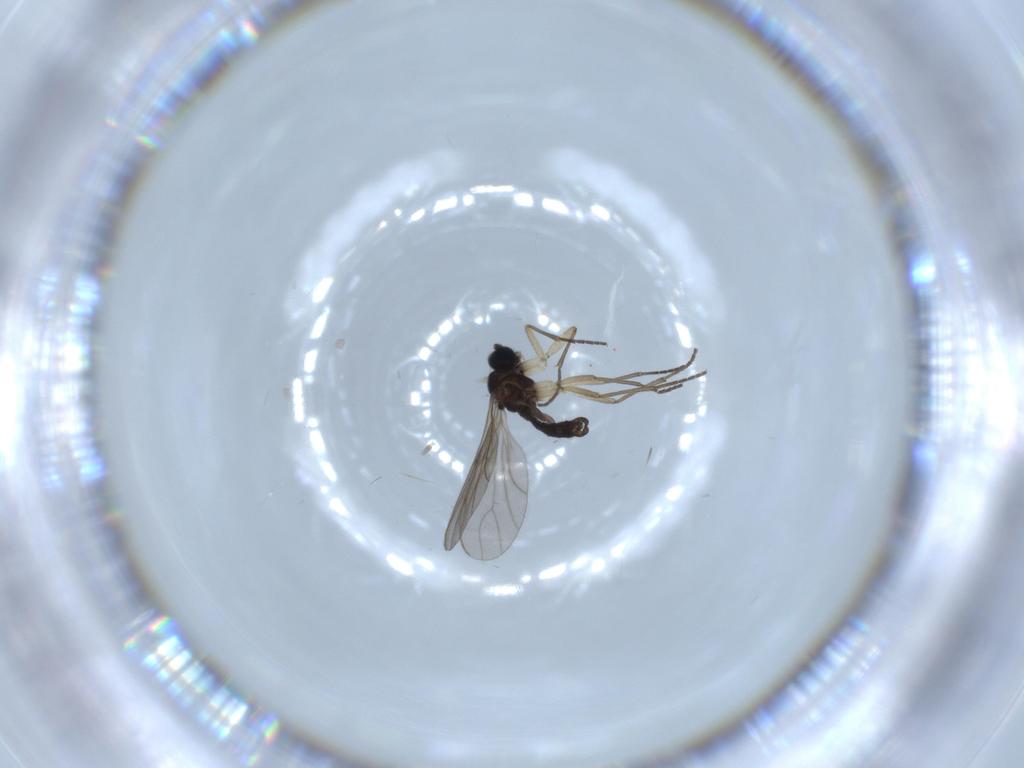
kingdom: Animalia
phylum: Arthropoda
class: Insecta
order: Diptera
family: Sciaridae
